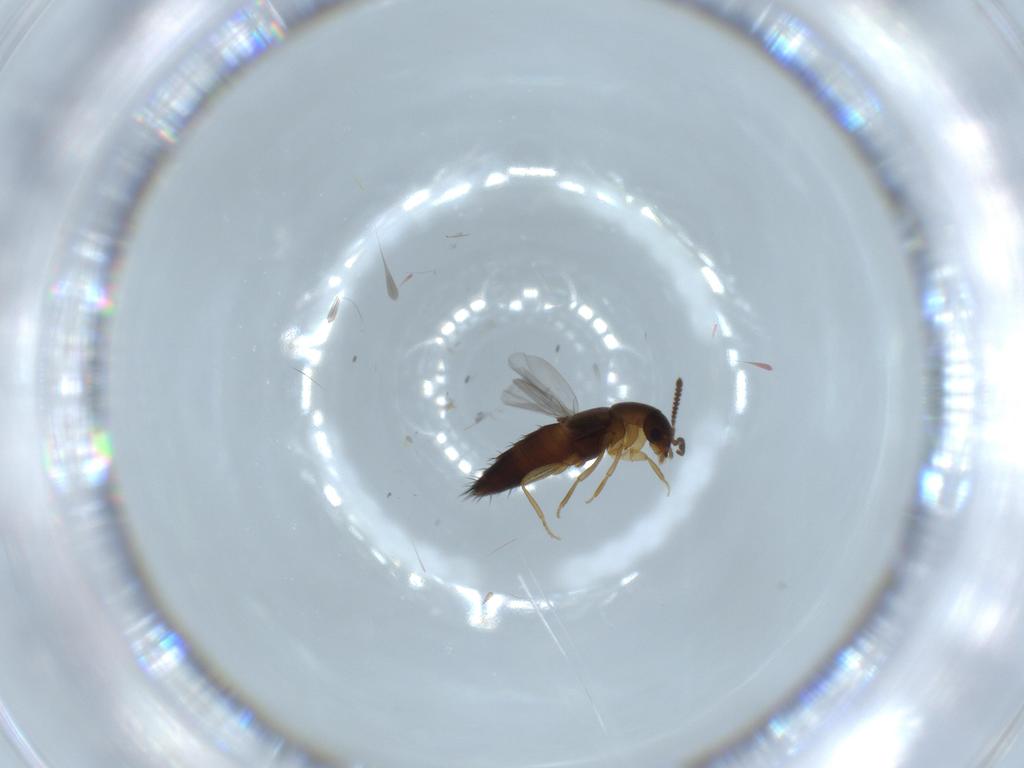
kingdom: Animalia
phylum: Arthropoda
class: Insecta
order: Coleoptera
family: Staphylinidae
